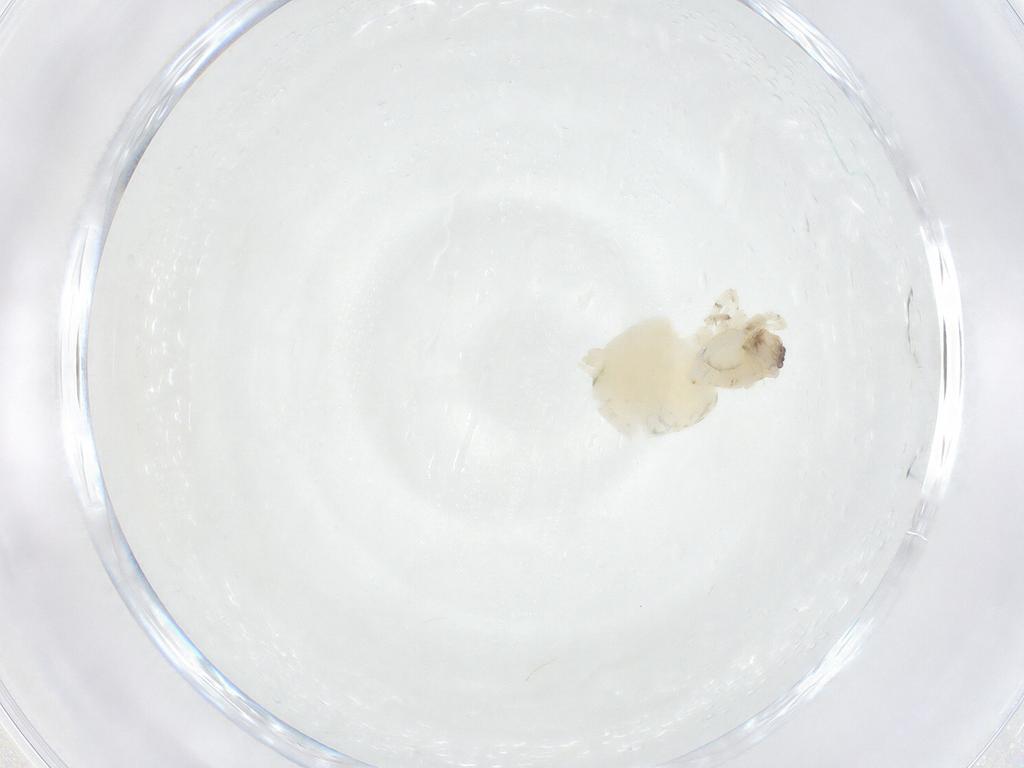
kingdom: Animalia
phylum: Arthropoda
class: Arachnida
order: Araneae
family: Anyphaenidae
